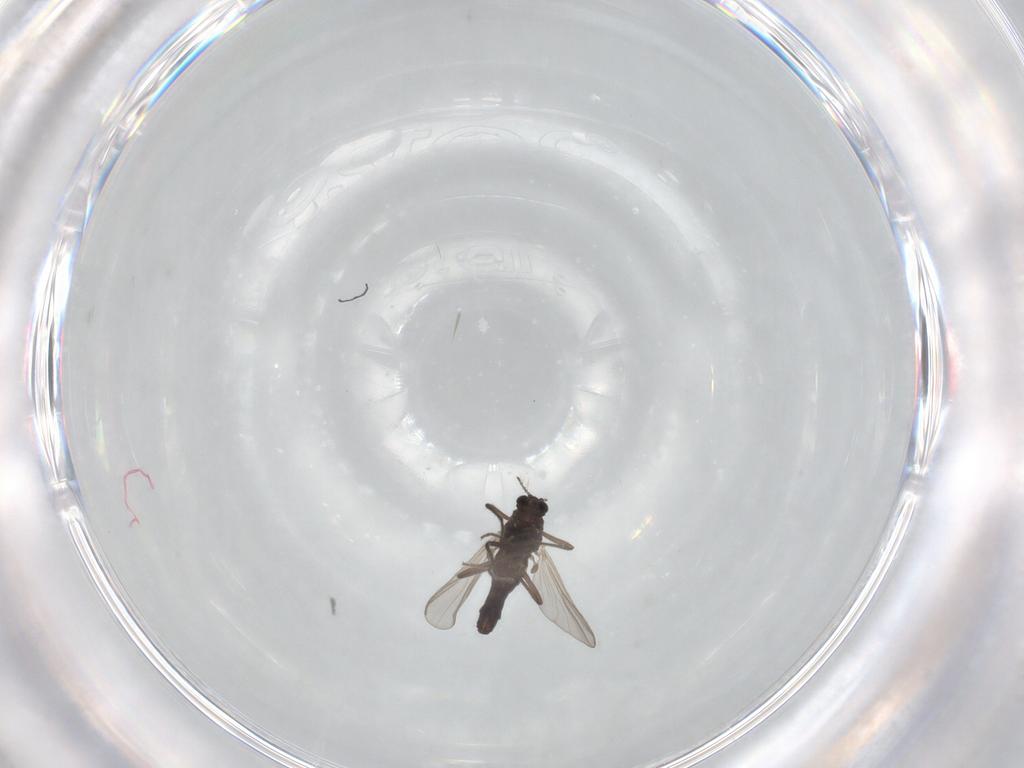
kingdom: Animalia
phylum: Arthropoda
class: Insecta
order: Diptera
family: Chironomidae
